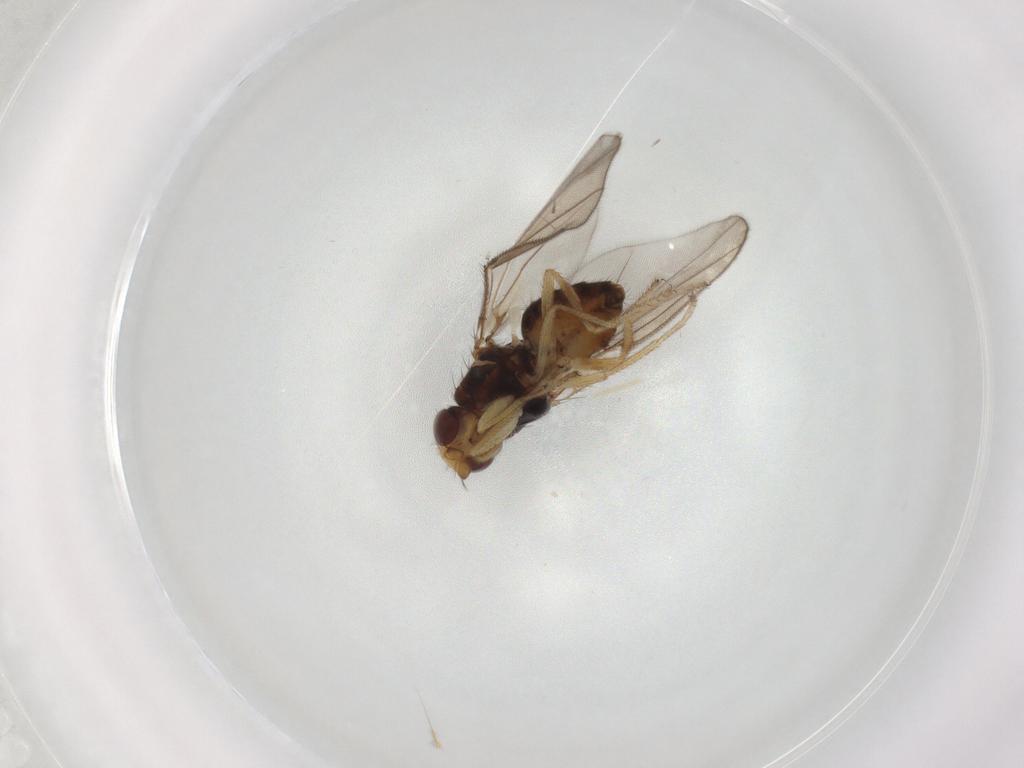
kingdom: Animalia
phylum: Arthropoda
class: Insecta
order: Diptera
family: Chloropidae
